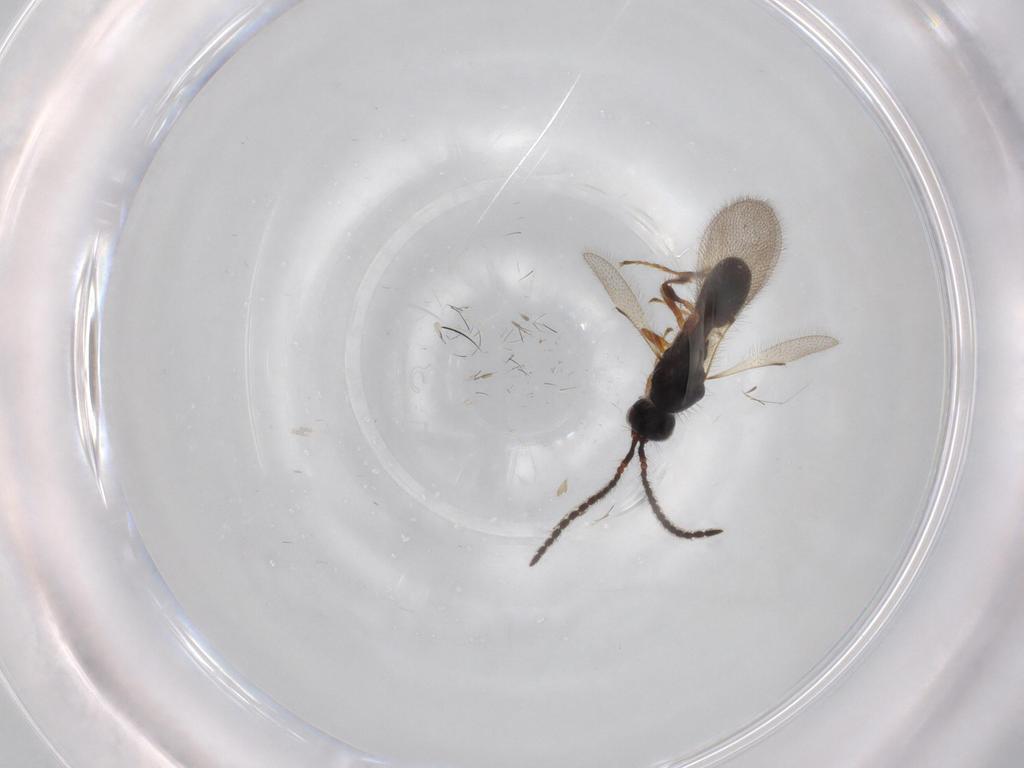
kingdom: Animalia
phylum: Arthropoda
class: Insecta
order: Hymenoptera
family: Diapriidae
